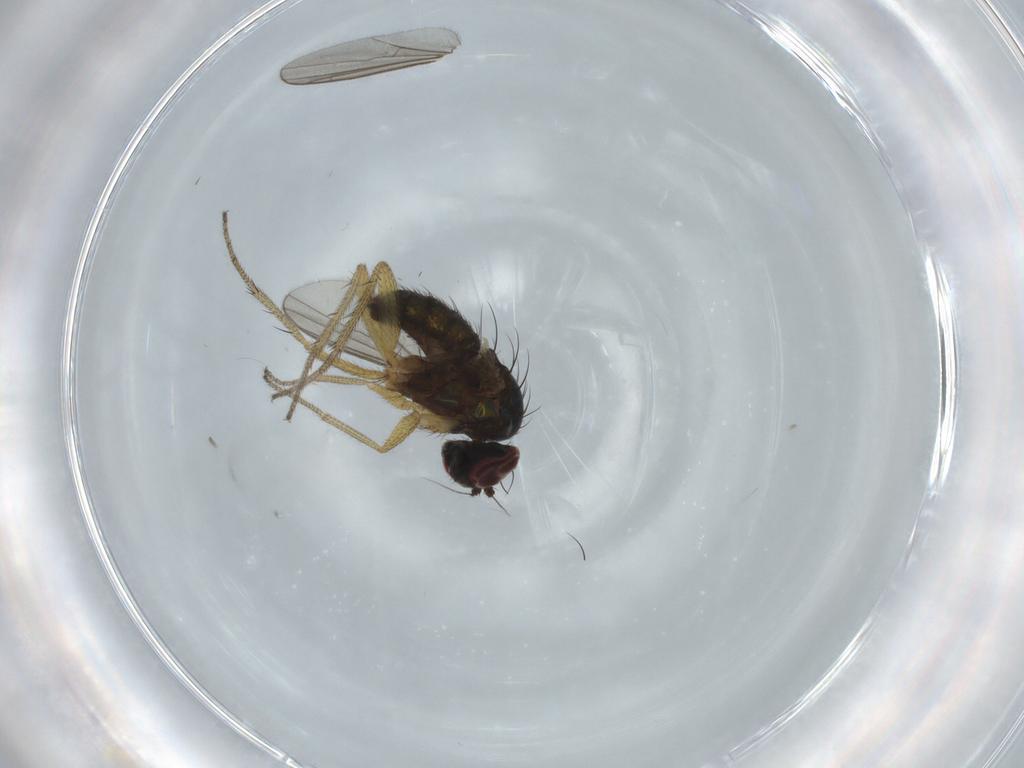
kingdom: Animalia
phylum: Arthropoda
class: Insecta
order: Diptera
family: Dolichopodidae
